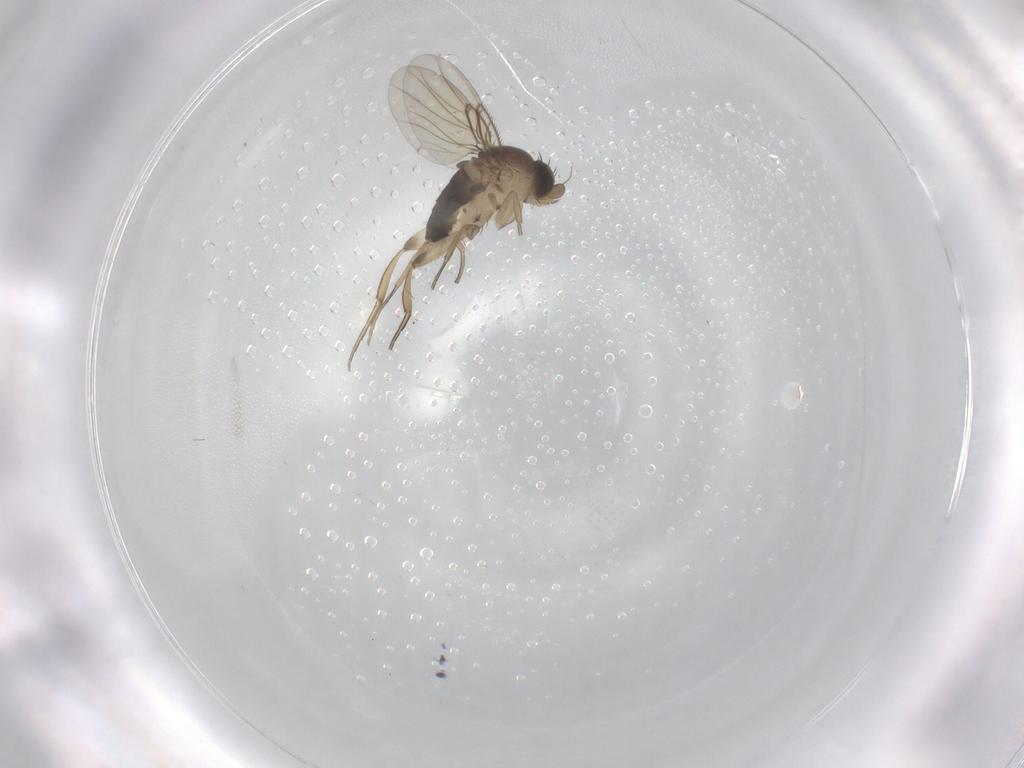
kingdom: Animalia
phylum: Arthropoda
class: Insecta
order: Diptera
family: Phoridae
